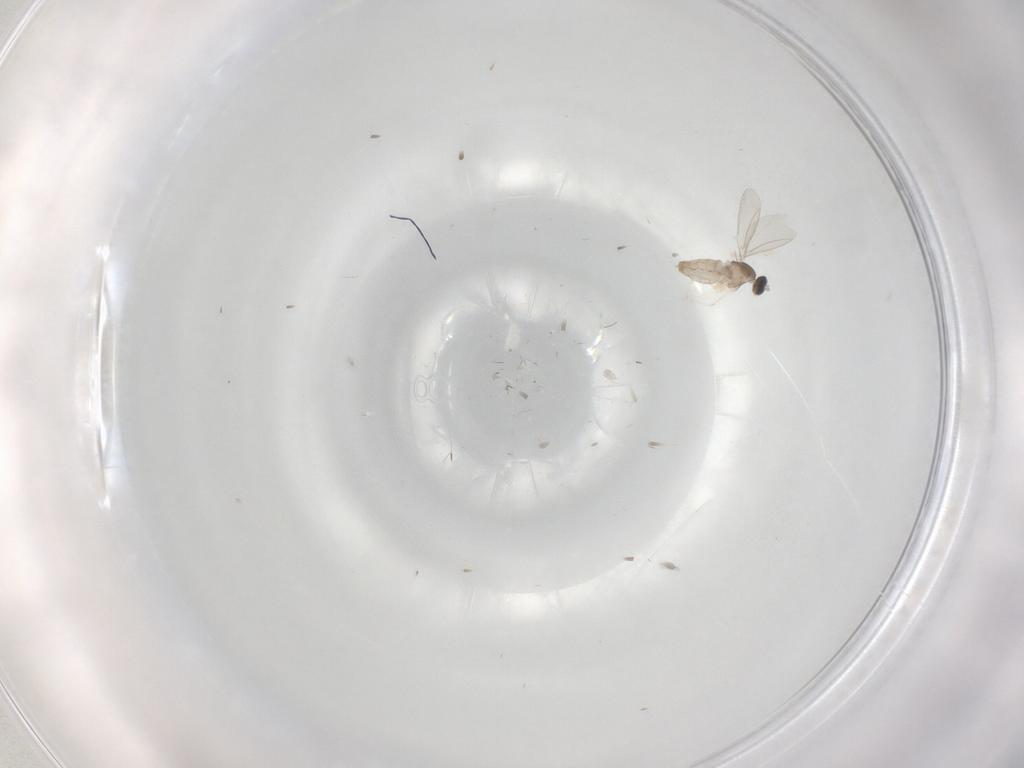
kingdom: Animalia
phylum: Arthropoda
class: Insecta
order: Diptera
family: Cecidomyiidae
